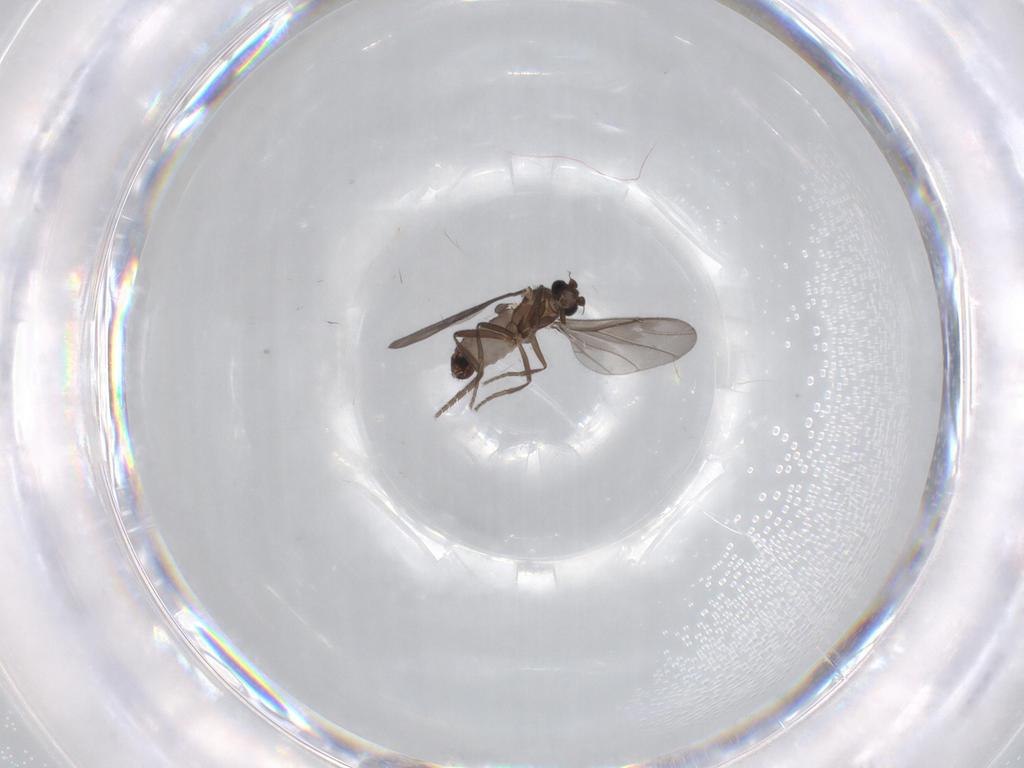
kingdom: Animalia
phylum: Arthropoda
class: Insecta
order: Diptera
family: Phoridae
